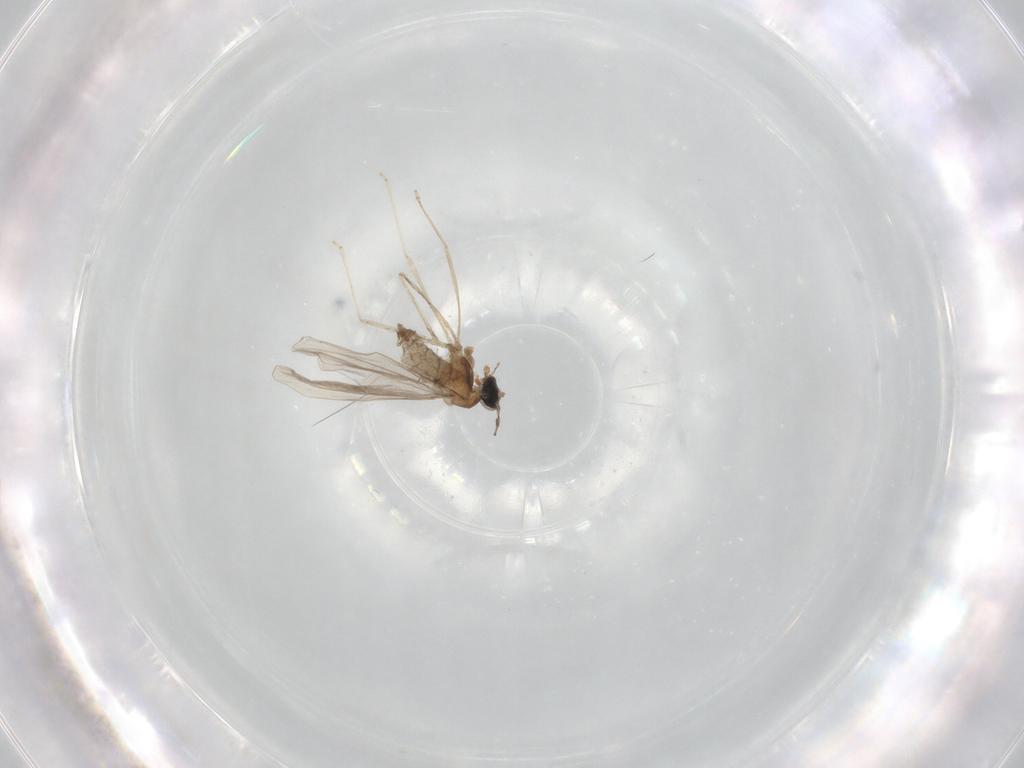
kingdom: Animalia
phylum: Arthropoda
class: Insecta
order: Diptera
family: Cecidomyiidae
